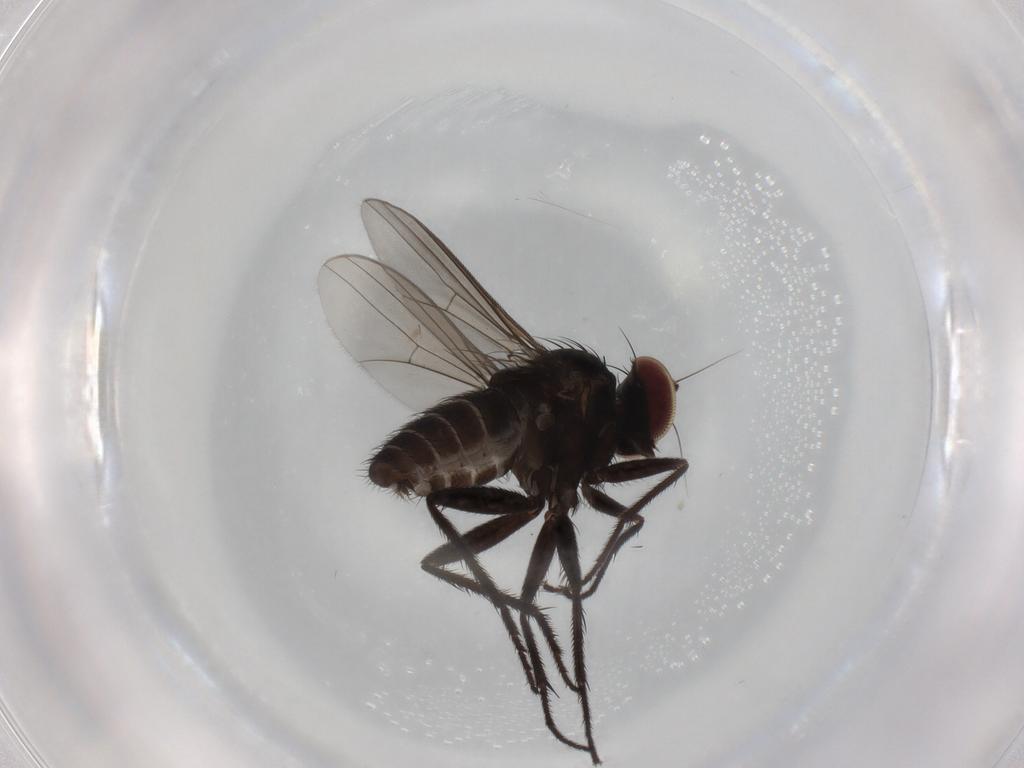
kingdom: Animalia
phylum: Arthropoda
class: Insecta
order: Diptera
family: Dolichopodidae
